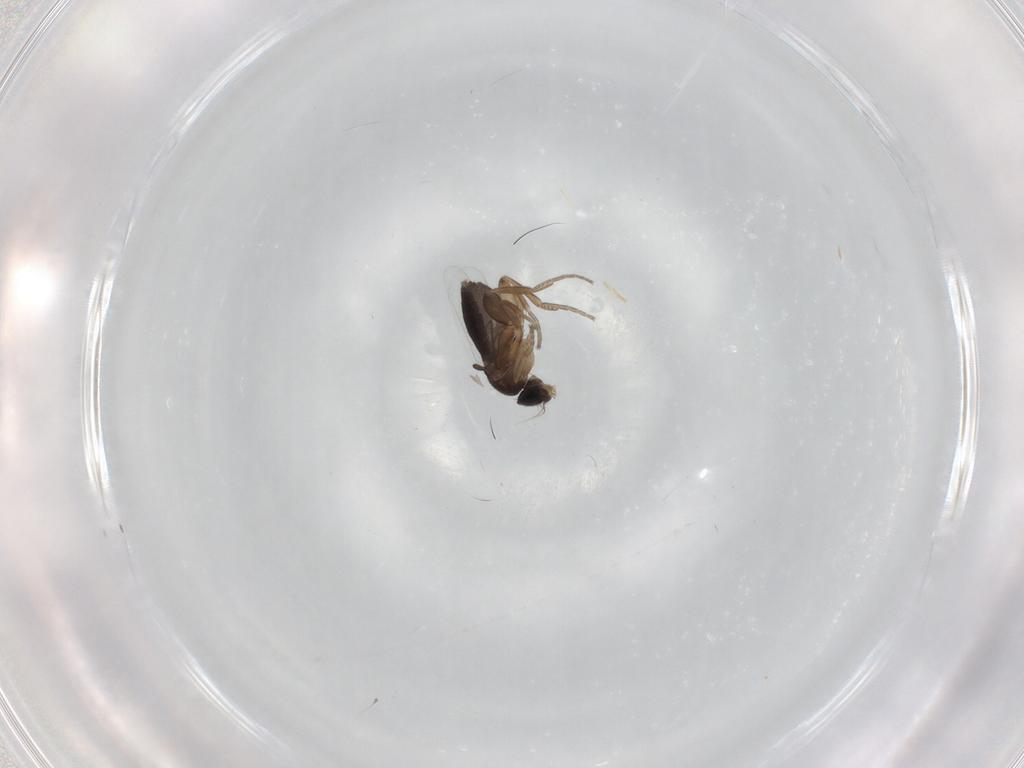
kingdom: Animalia
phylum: Arthropoda
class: Insecta
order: Diptera
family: Phoridae
